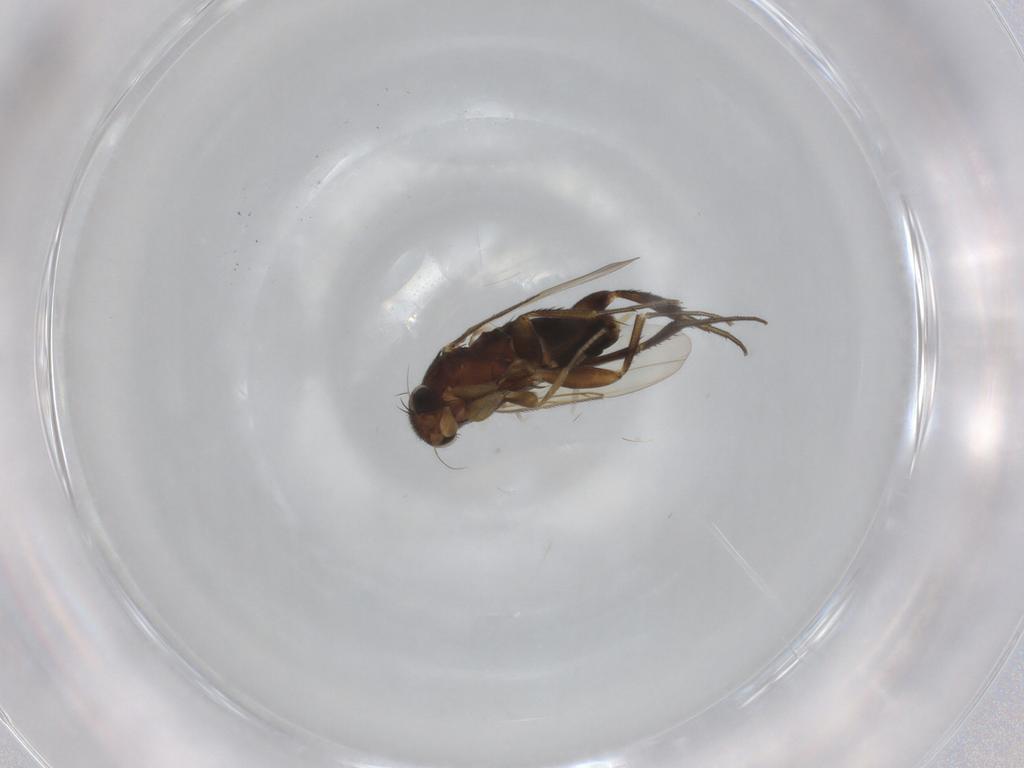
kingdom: Animalia
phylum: Arthropoda
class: Insecta
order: Diptera
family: Phoridae
